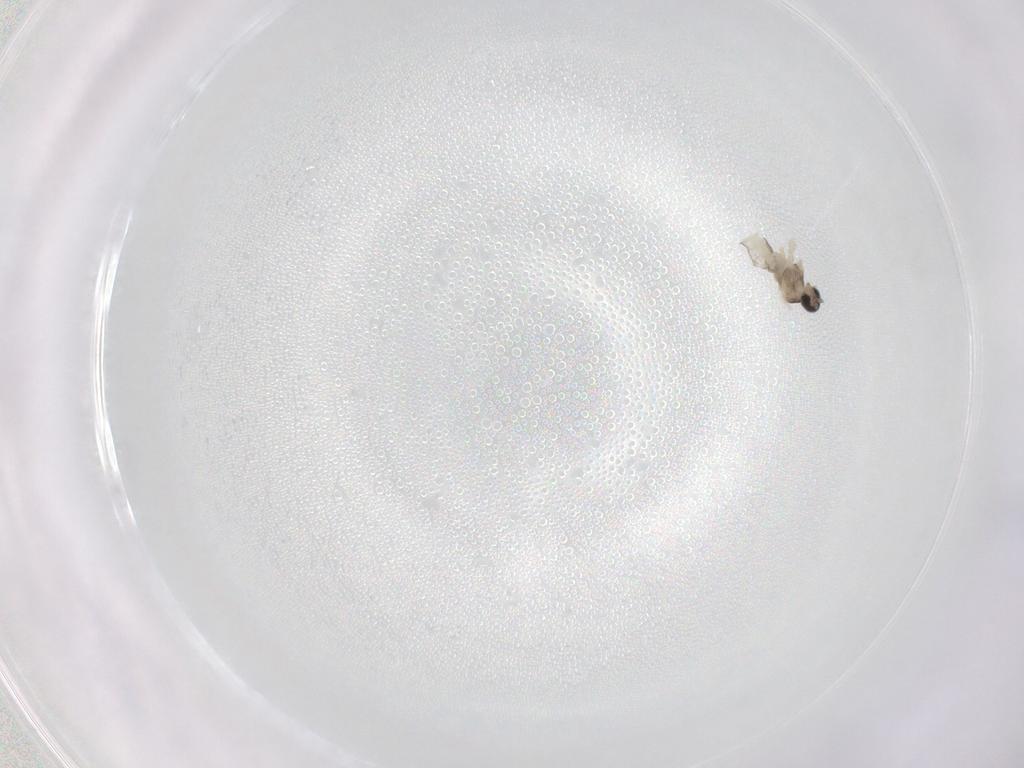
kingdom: Animalia
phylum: Arthropoda
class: Insecta
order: Diptera
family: Cecidomyiidae
